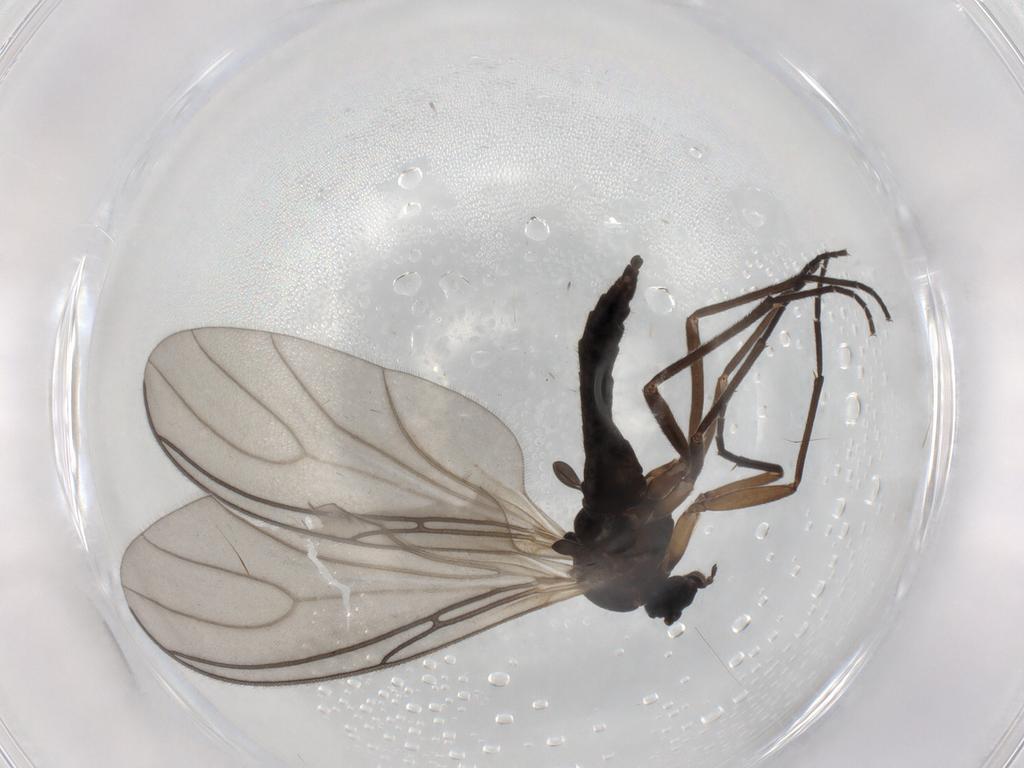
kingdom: Animalia
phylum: Arthropoda
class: Insecta
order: Diptera
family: Sciaridae
